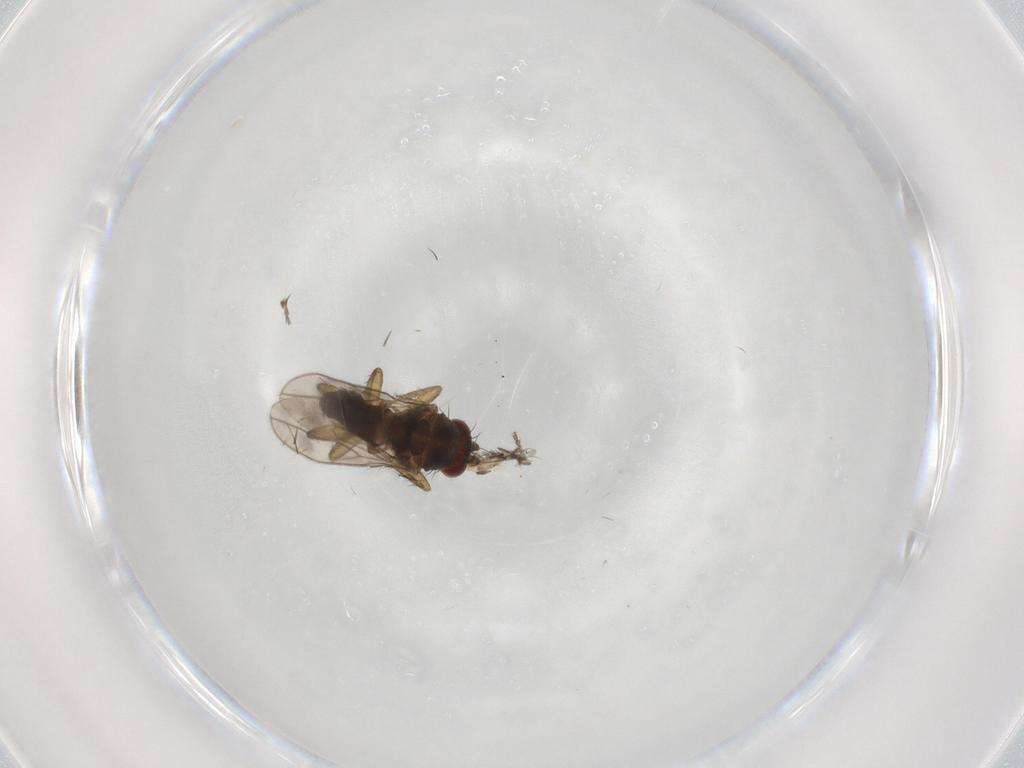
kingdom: Animalia
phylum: Arthropoda
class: Insecta
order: Diptera
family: Sphaeroceridae
